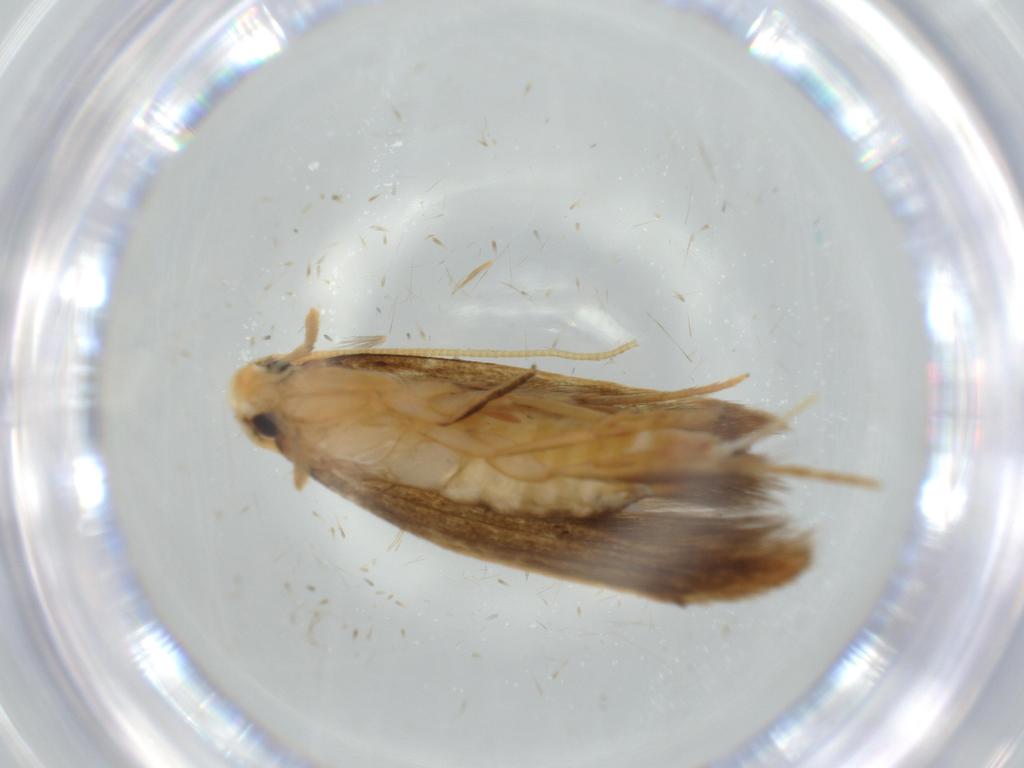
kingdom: Animalia
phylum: Arthropoda
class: Insecta
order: Lepidoptera
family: Tineidae
